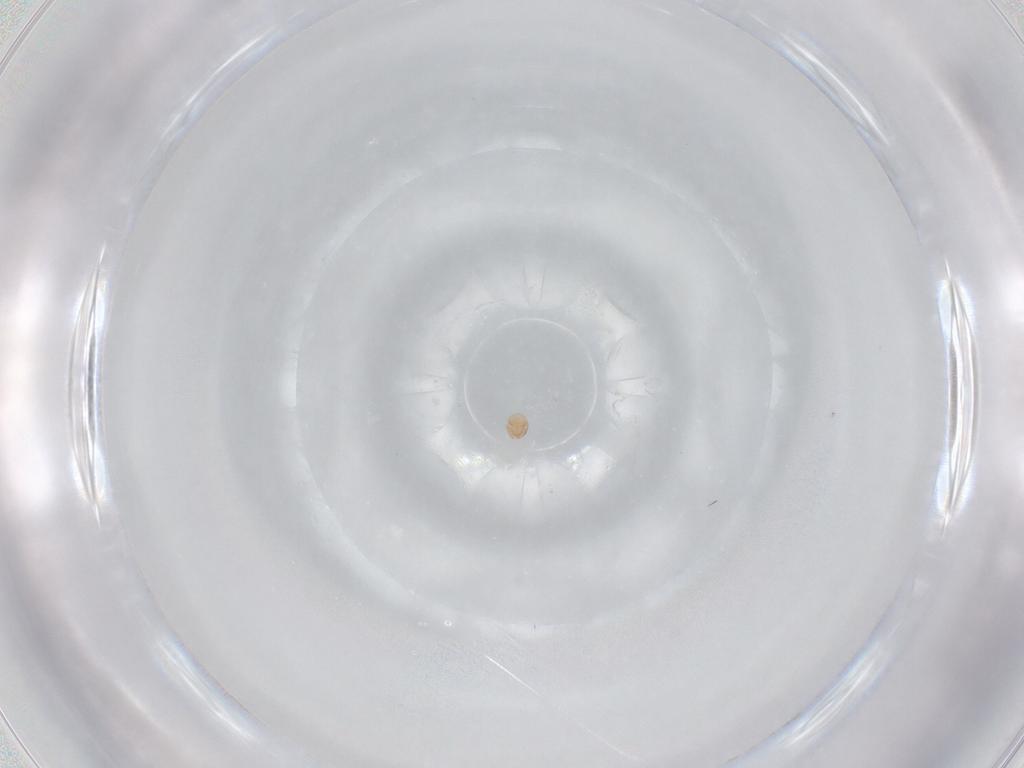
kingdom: Animalia
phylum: Arthropoda
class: Arachnida
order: Trombidiformes
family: Scutacaridae
